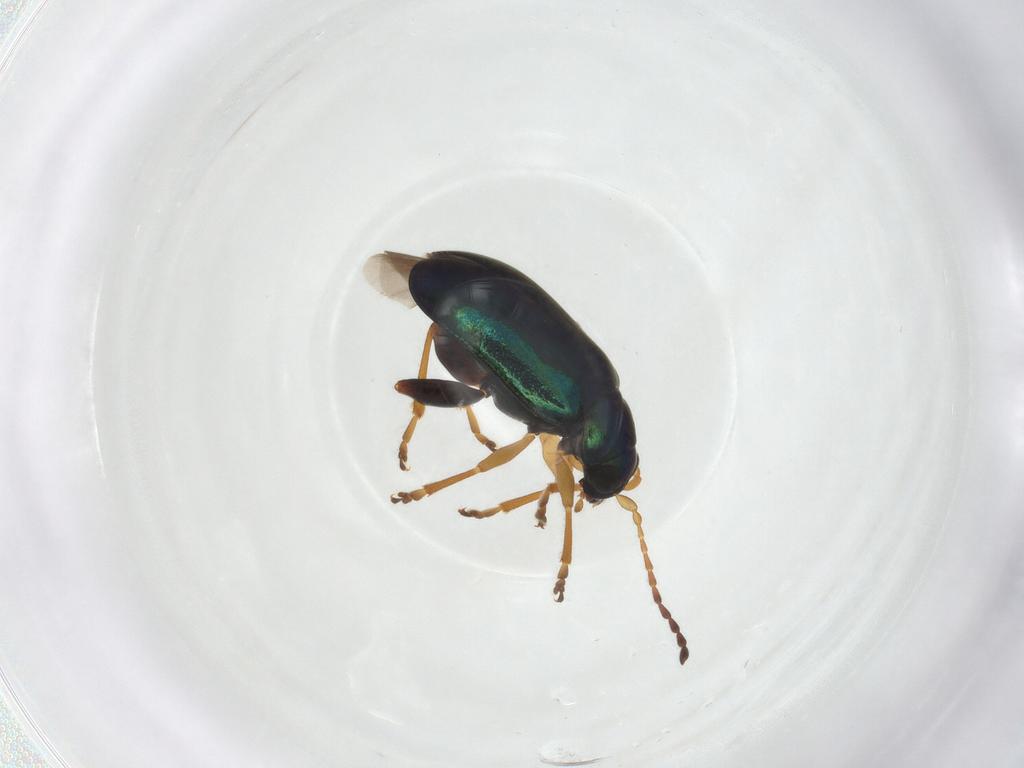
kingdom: Animalia
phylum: Arthropoda
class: Insecta
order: Coleoptera
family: Chrysomelidae
